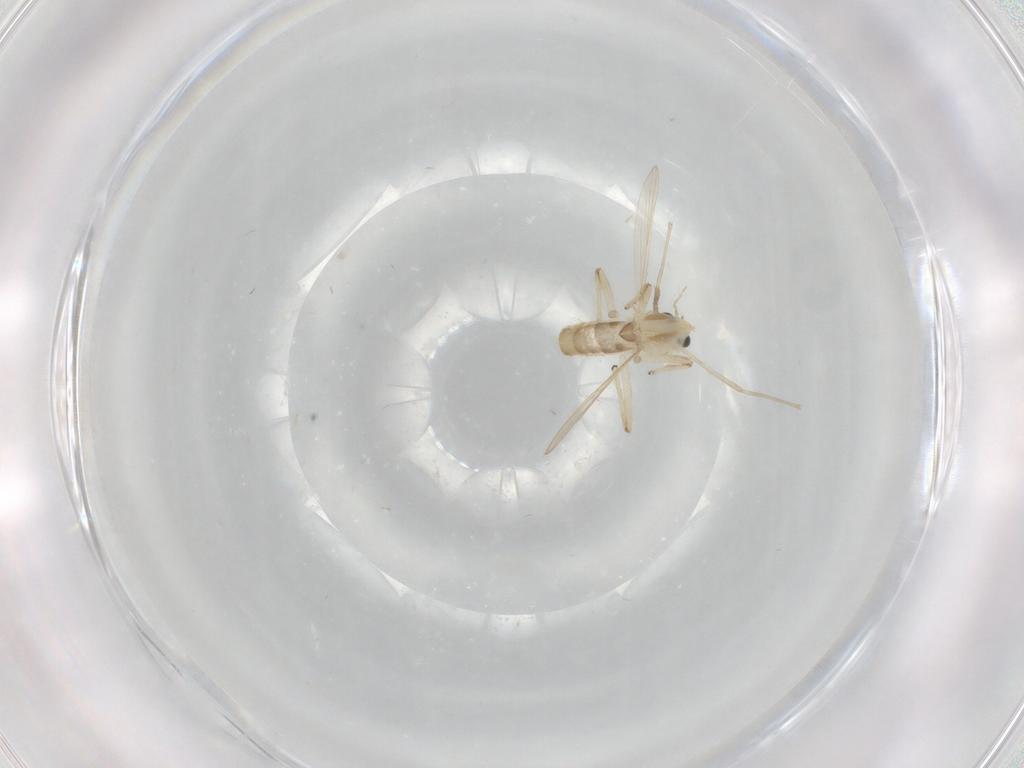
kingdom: Animalia
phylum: Arthropoda
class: Insecta
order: Diptera
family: Chironomidae
